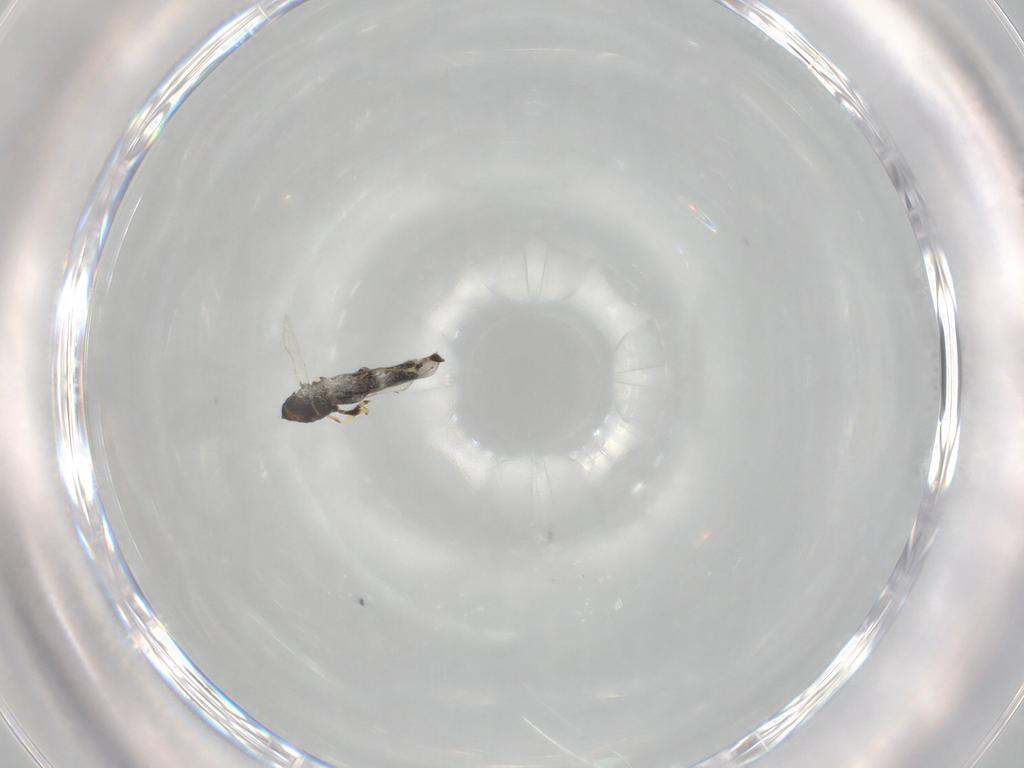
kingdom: Animalia
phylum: Arthropoda
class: Insecta
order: Hymenoptera
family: Eulophidae
